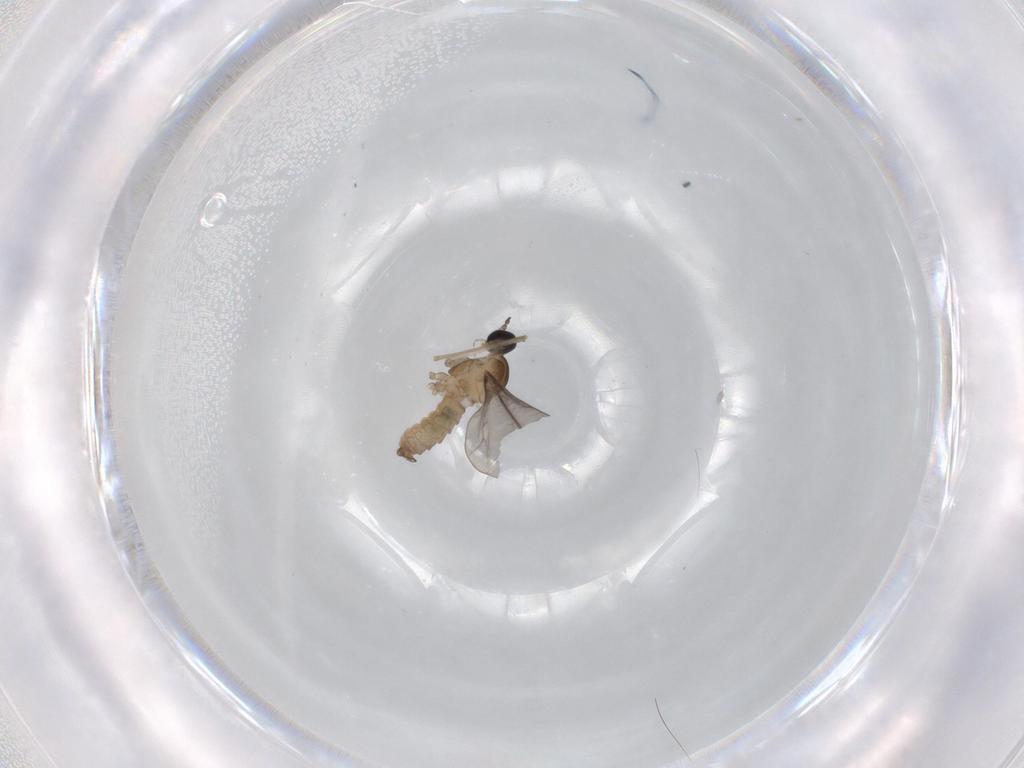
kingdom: Animalia
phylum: Arthropoda
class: Insecta
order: Diptera
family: Cecidomyiidae
